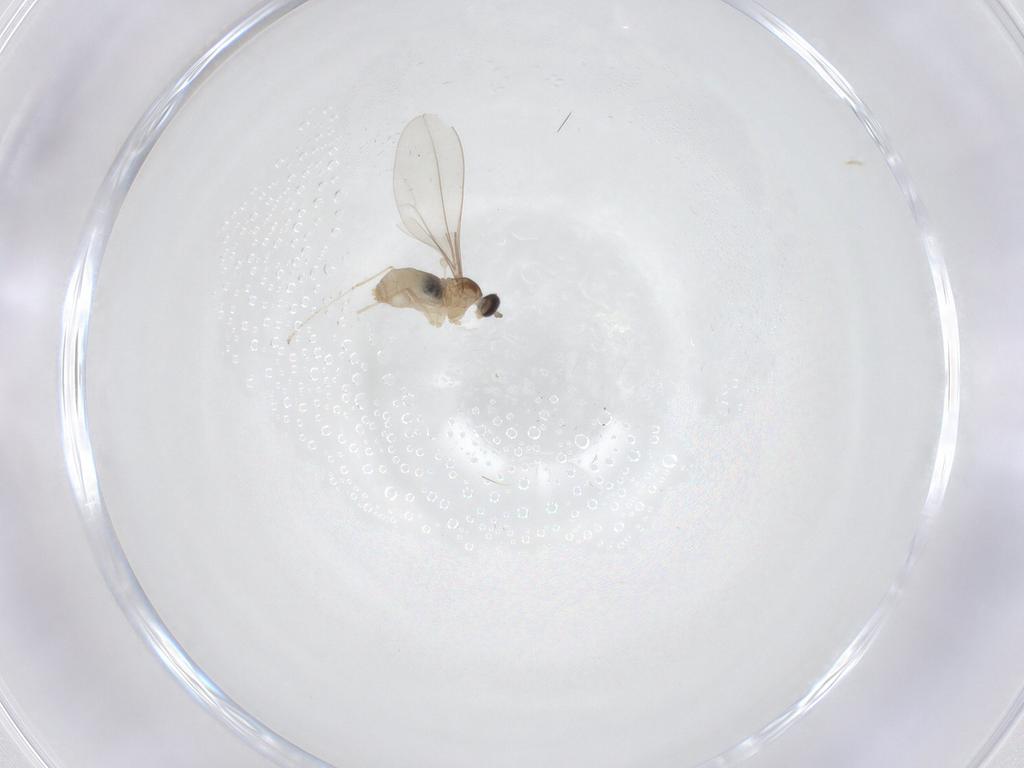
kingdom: Animalia
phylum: Arthropoda
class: Insecta
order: Diptera
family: Cecidomyiidae
